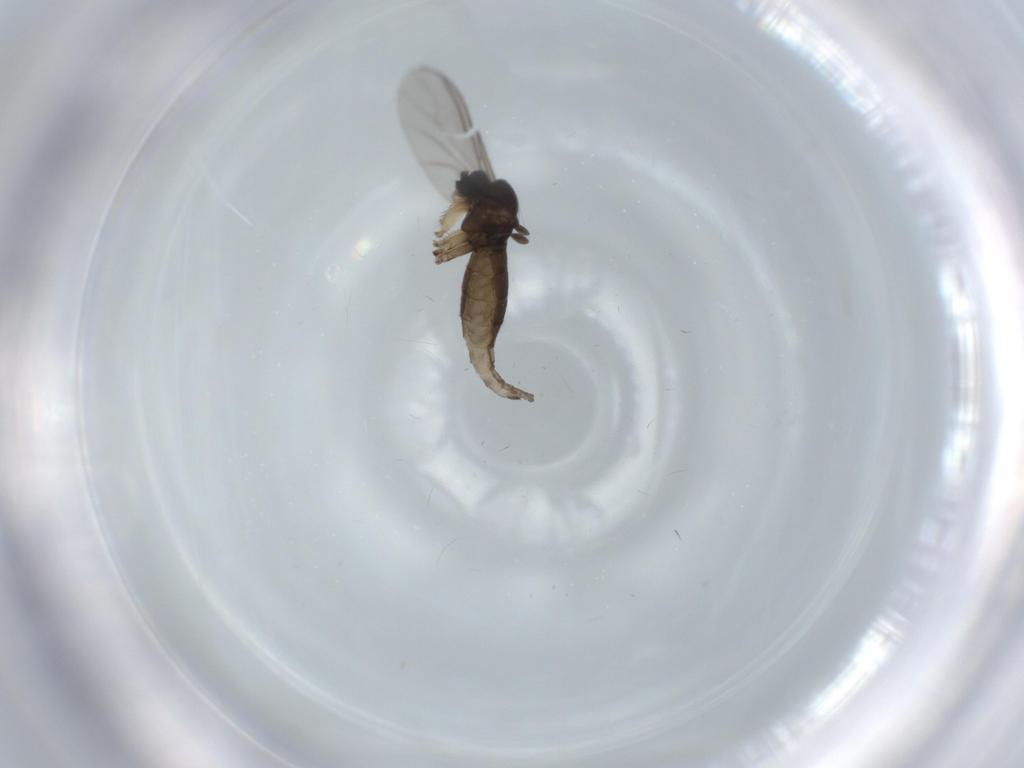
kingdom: Animalia
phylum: Arthropoda
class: Insecta
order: Diptera
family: Sciaridae
